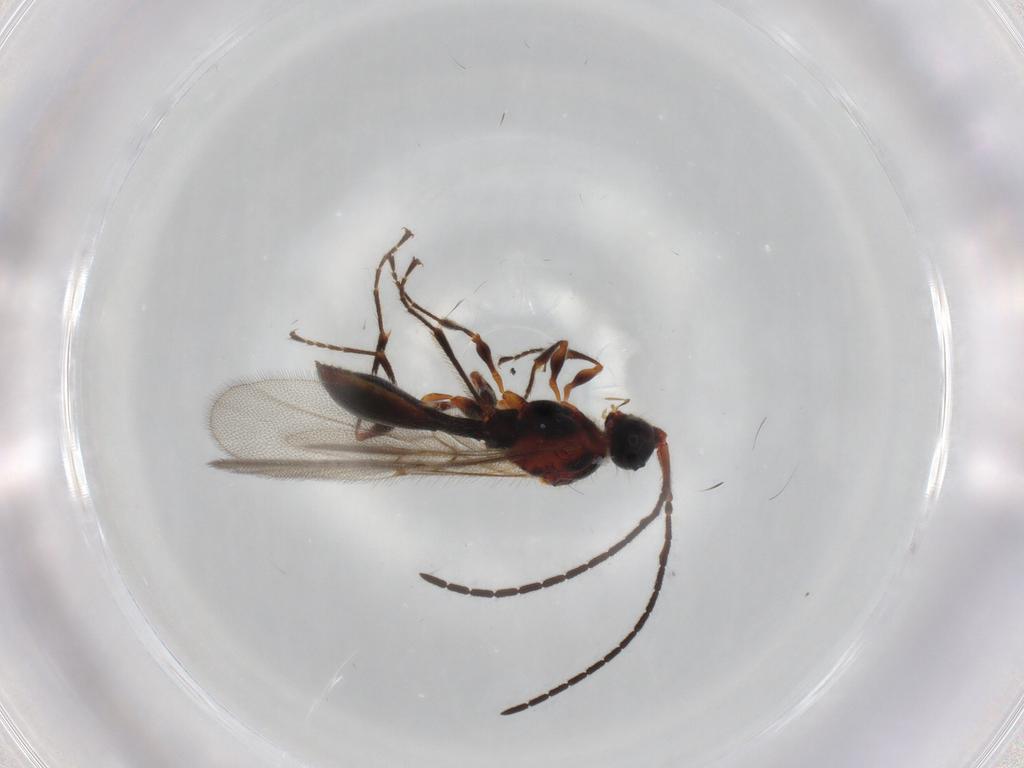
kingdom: Animalia
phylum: Arthropoda
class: Insecta
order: Hymenoptera
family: Diapriidae
